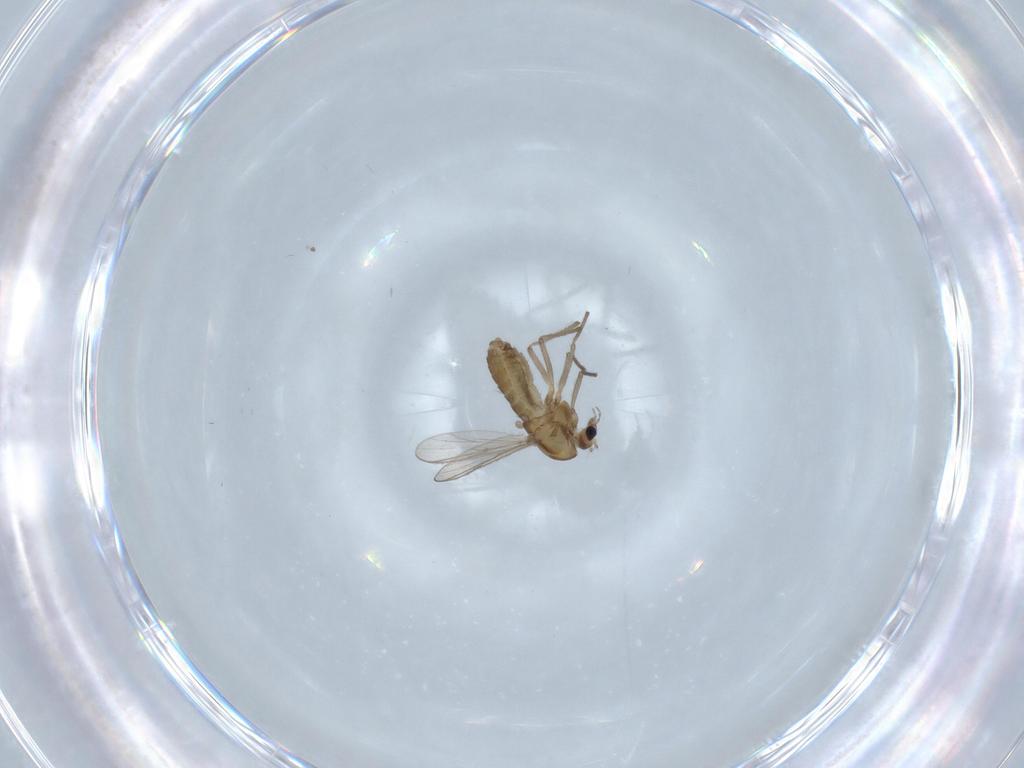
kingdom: Animalia
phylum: Arthropoda
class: Insecta
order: Diptera
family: Chironomidae
